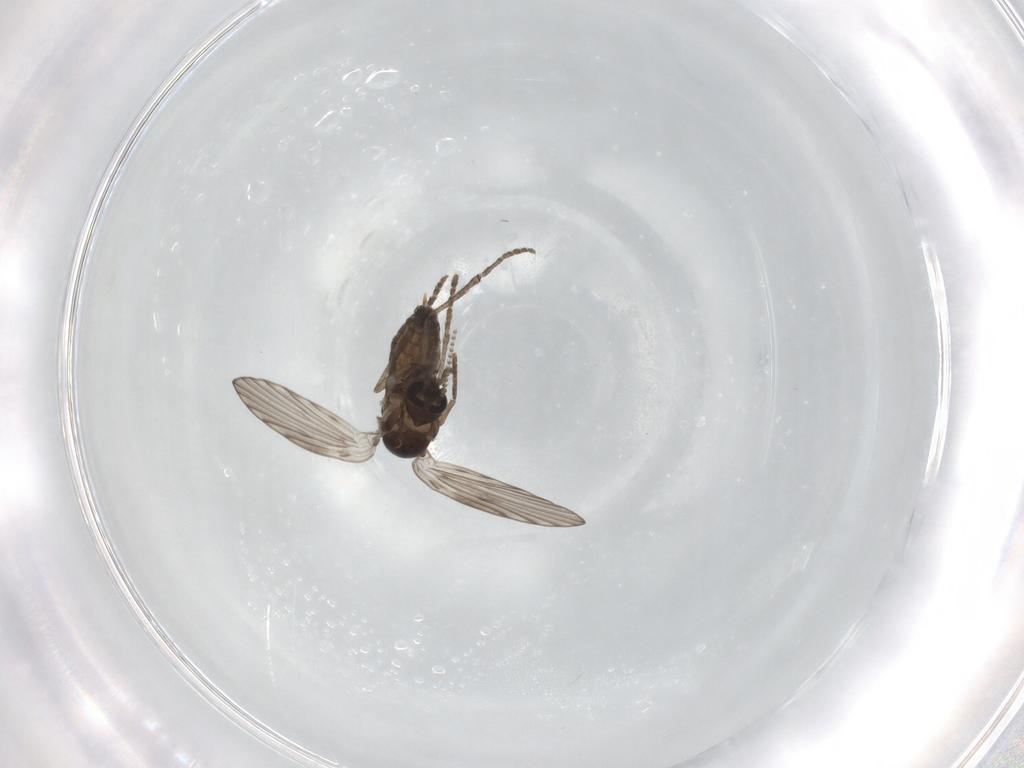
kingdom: Animalia
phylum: Arthropoda
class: Insecta
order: Diptera
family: Psychodidae
